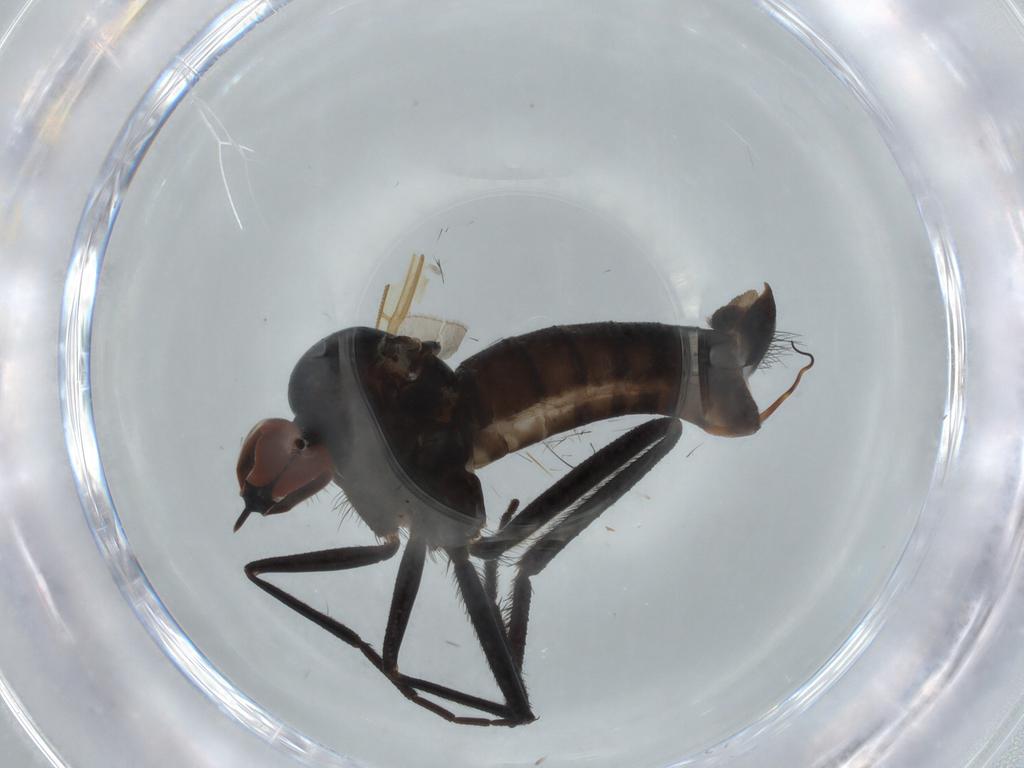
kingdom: Animalia
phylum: Arthropoda
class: Insecta
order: Diptera
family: Empididae
